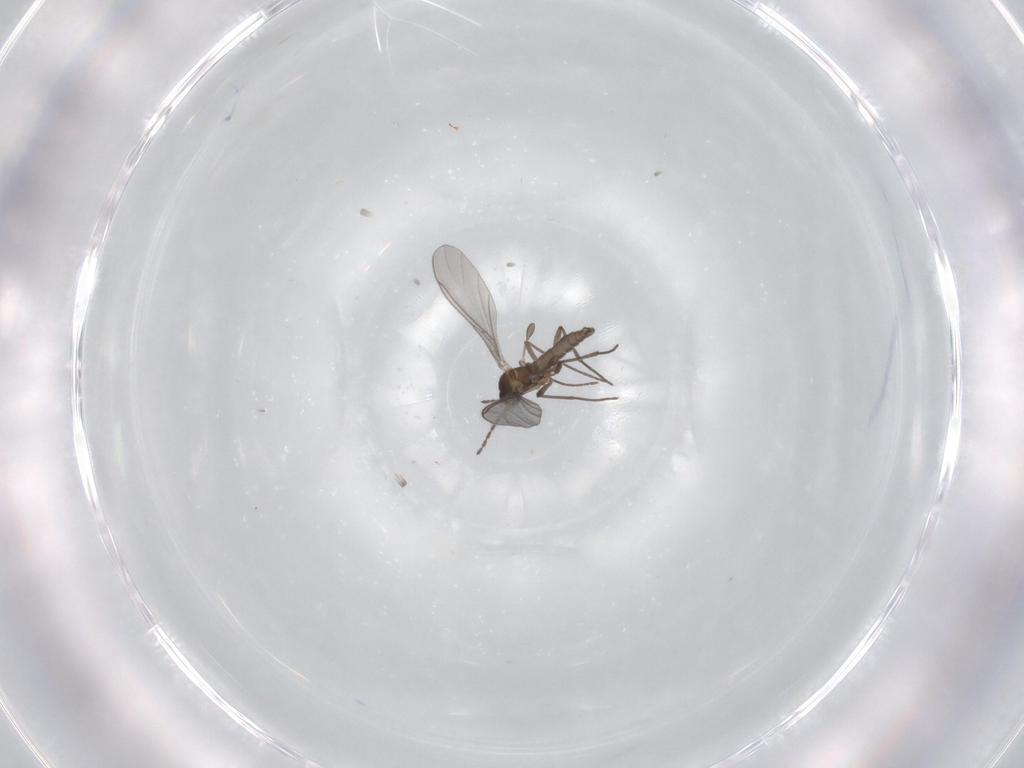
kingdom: Animalia
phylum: Arthropoda
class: Insecta
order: Diptera
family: Sciaridae
